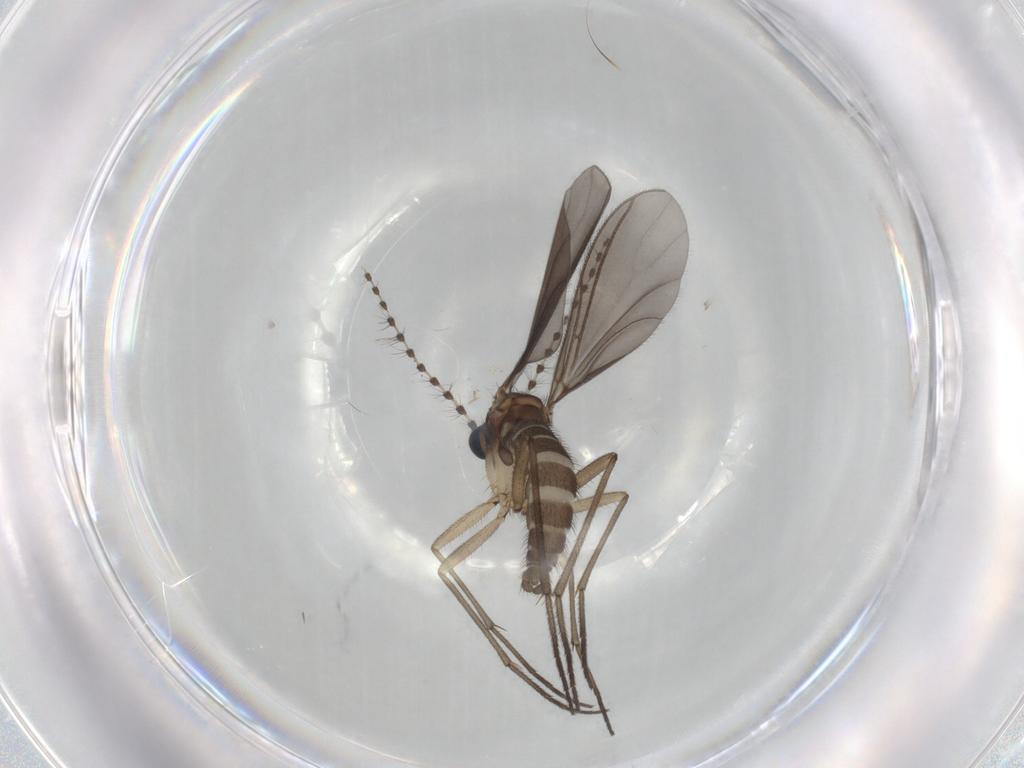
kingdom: Animalia
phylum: Arthropoda
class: Insecta
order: Diptera
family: Sciaridae
